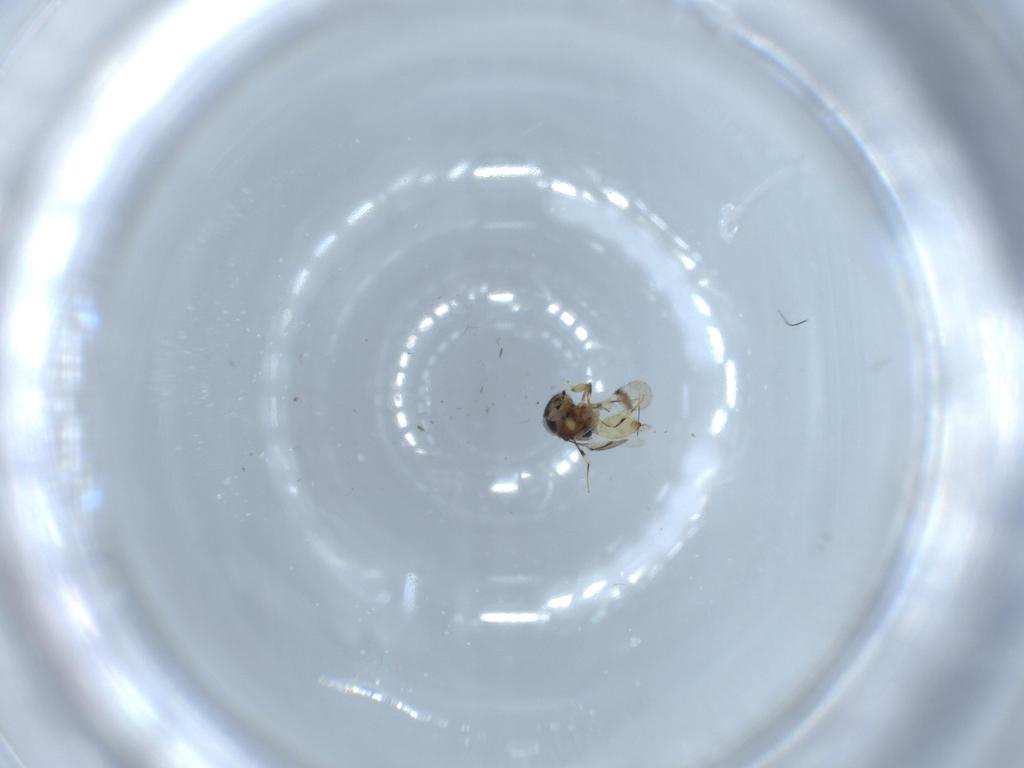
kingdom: Animalia
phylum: Arthropoda
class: Insecta
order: Hymenoptera
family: Scelionidae
